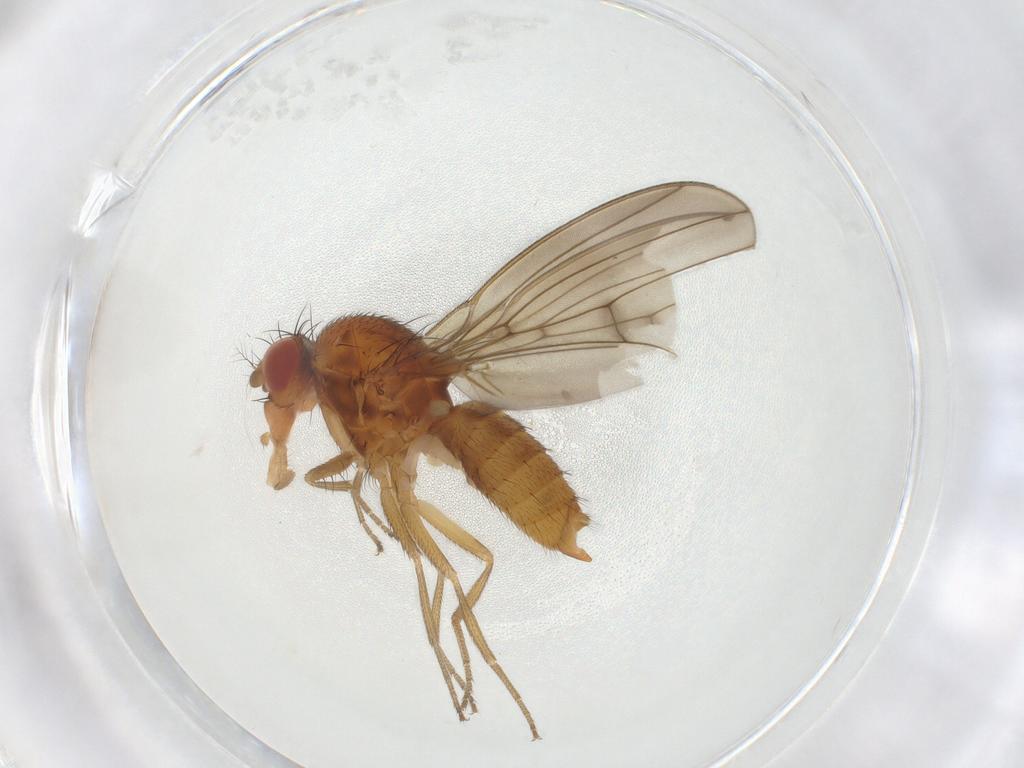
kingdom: Animalia
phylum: Arthropoda
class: Insecta
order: Diptera
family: Drosophilidae
